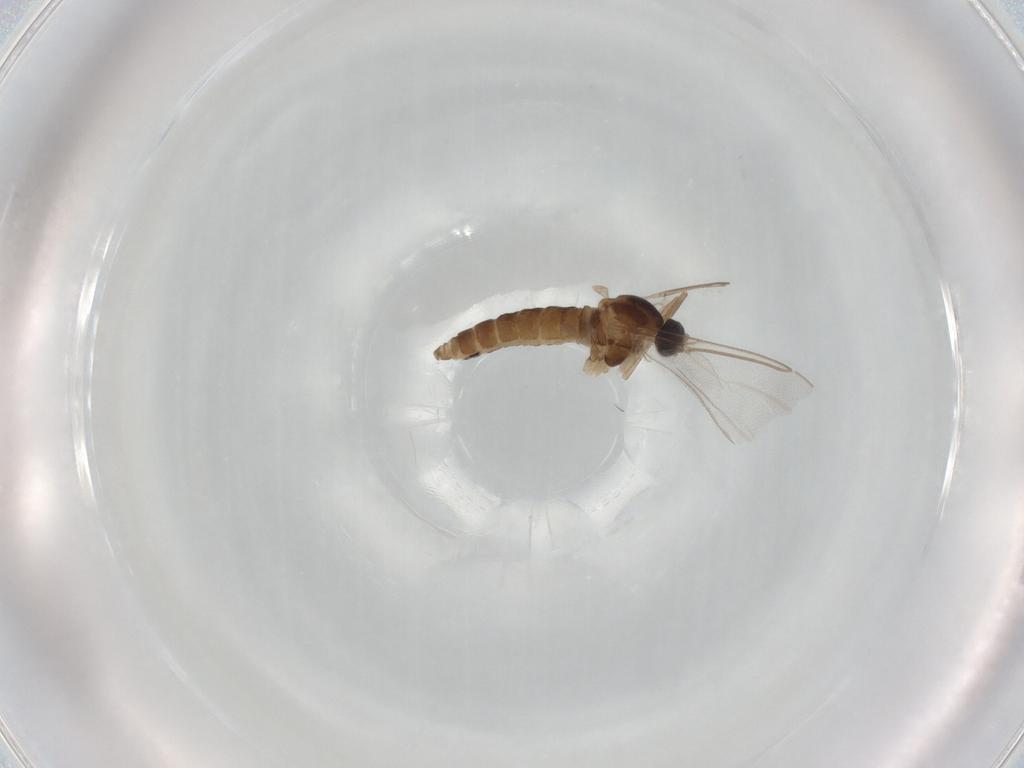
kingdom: Animalia
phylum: Arthropoda
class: Insecta
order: Diptera
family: Cecidomyiidae
